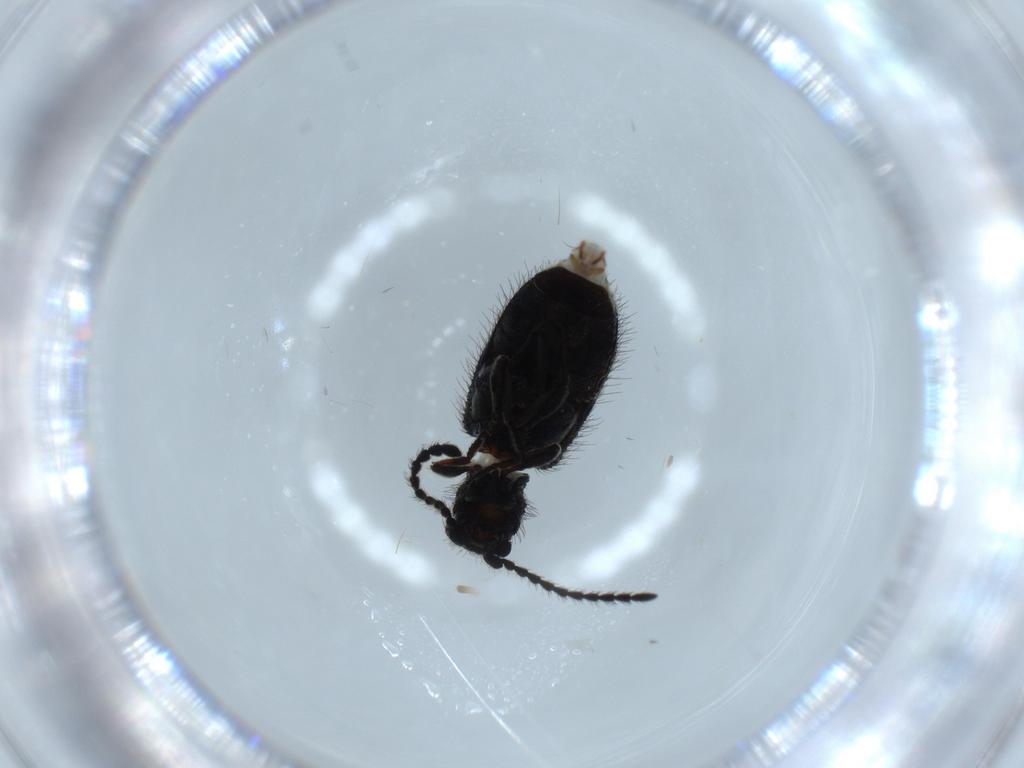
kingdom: Animalia
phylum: Arthropoda
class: Insecta
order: Coleoptera
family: Ptinidae
